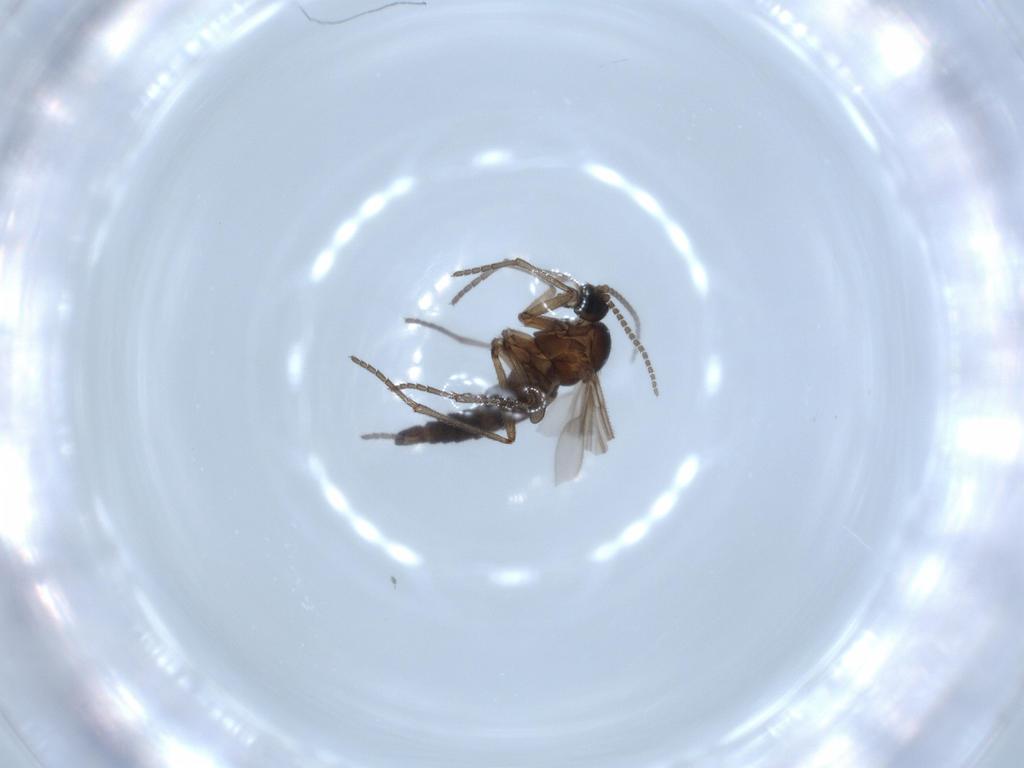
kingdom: Animalia
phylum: Arthropoda
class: Insecta
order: Diptera
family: Sciaridae
